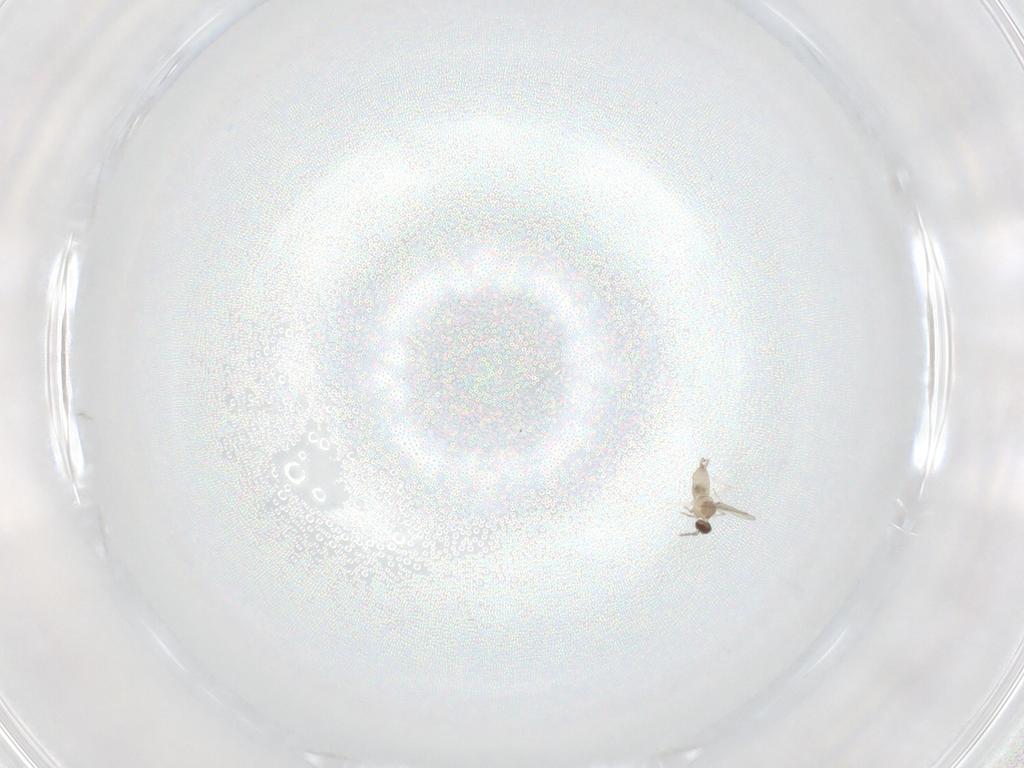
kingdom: Animalia
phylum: Arthropoda
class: Insecta
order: Diptera
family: Cecidomyiidae
